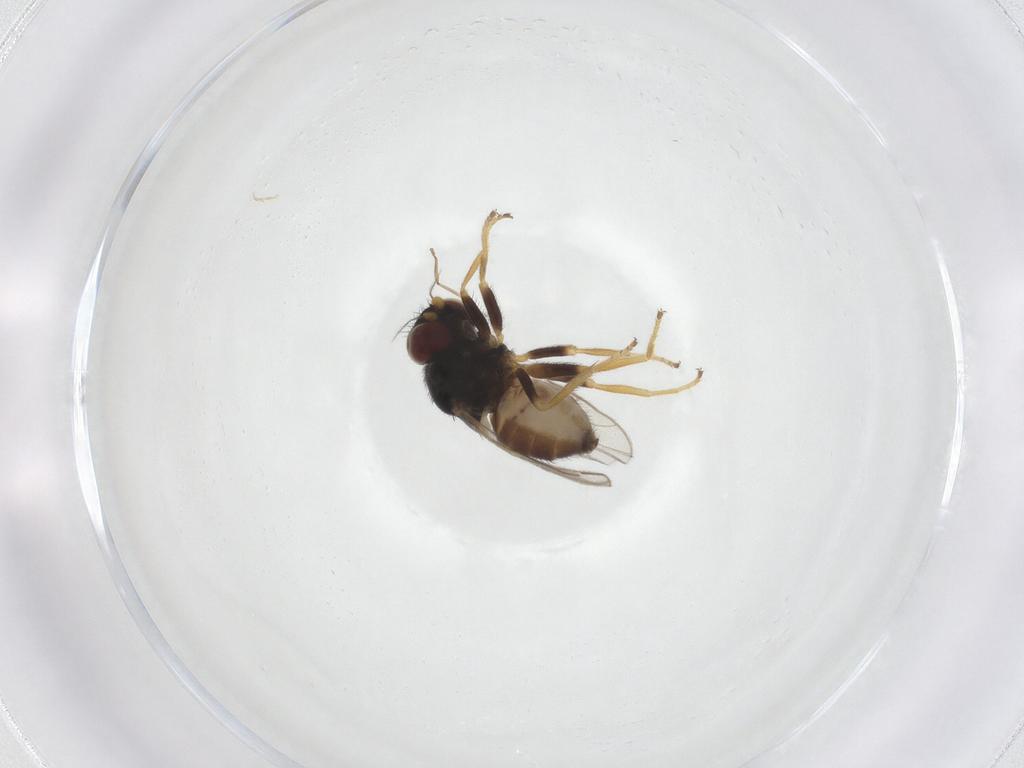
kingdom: Animalia
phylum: Arthropoda
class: Insecta
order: Diptera
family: Chloropidae
